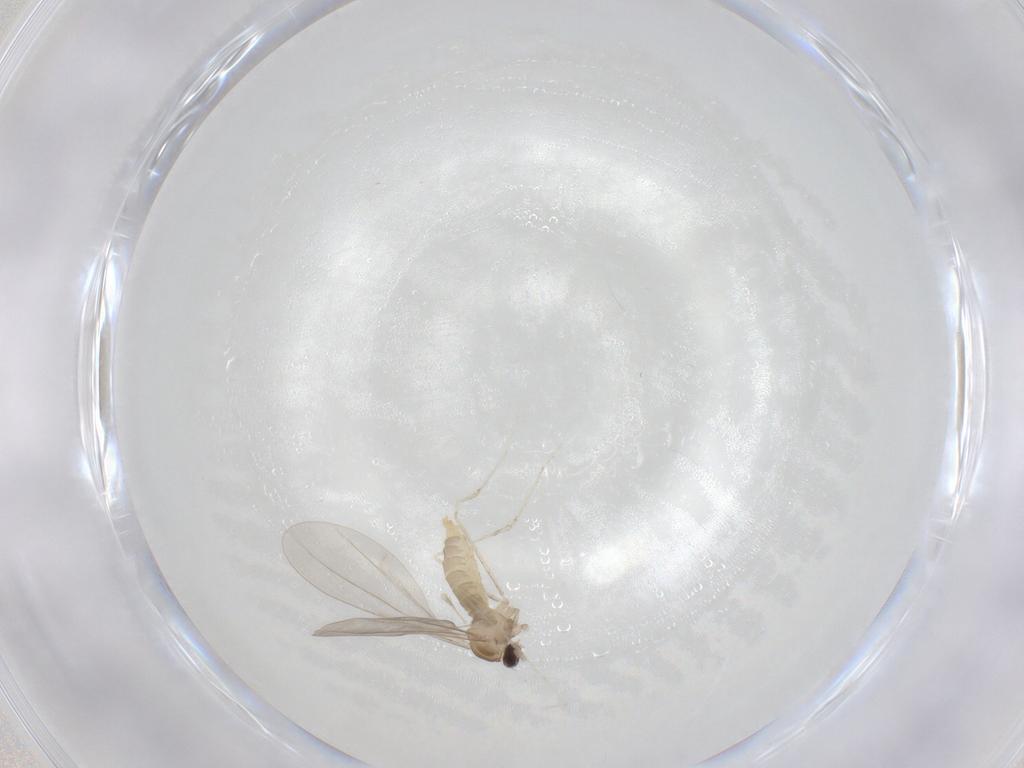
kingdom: Animalia
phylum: Arthropoda
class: Insecta
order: Diptera
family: Cecidomyiidae
